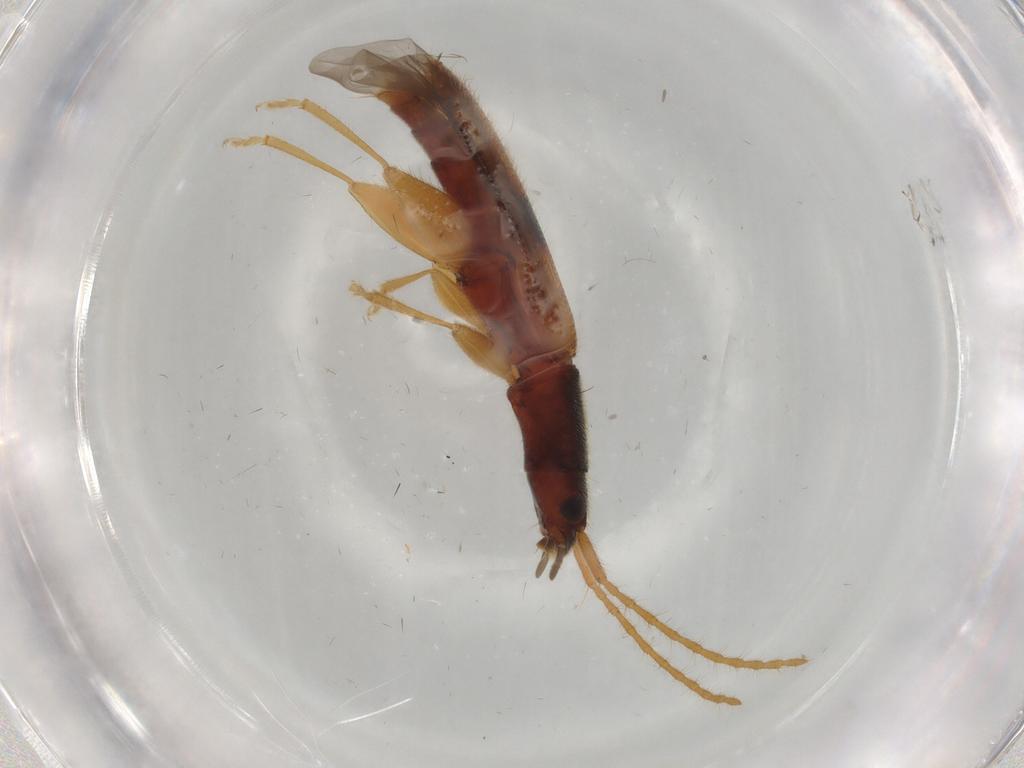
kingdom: Animalia
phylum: Arthropoda
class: Insecta
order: Coleoptera
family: Silvanidae
